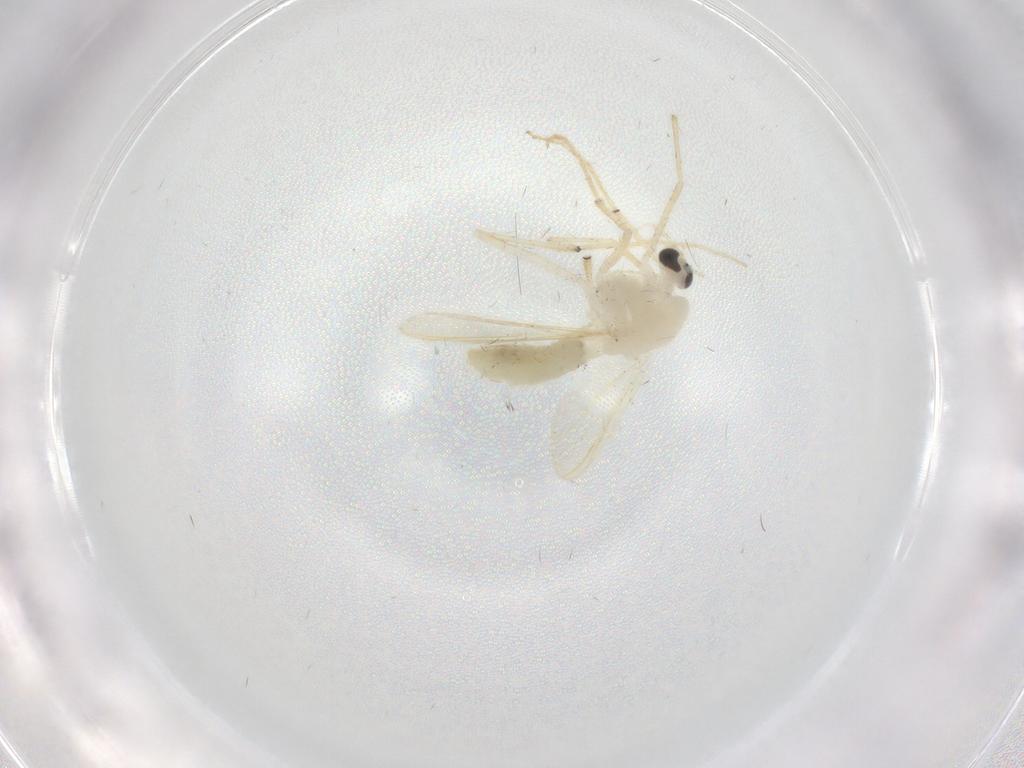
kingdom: Animalia
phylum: Arthropoda
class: Insecta
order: Diptera
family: Chironomidae
